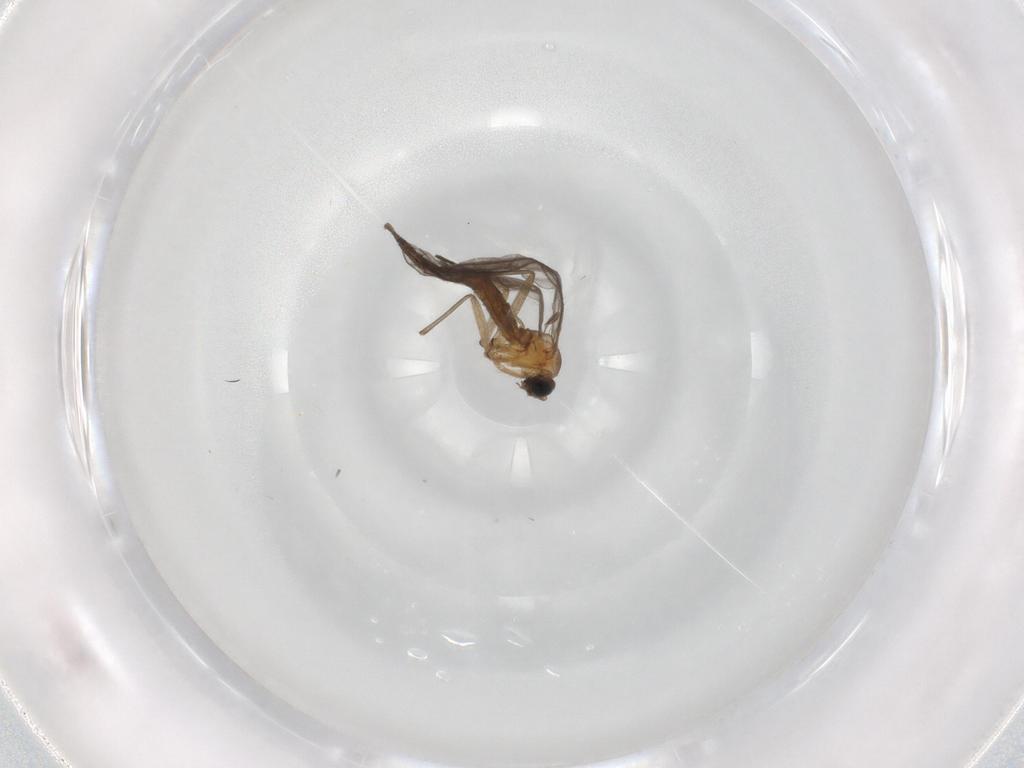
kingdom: Animalia
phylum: Arthropoda
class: Insecta
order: Diptera
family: Sciaridae
